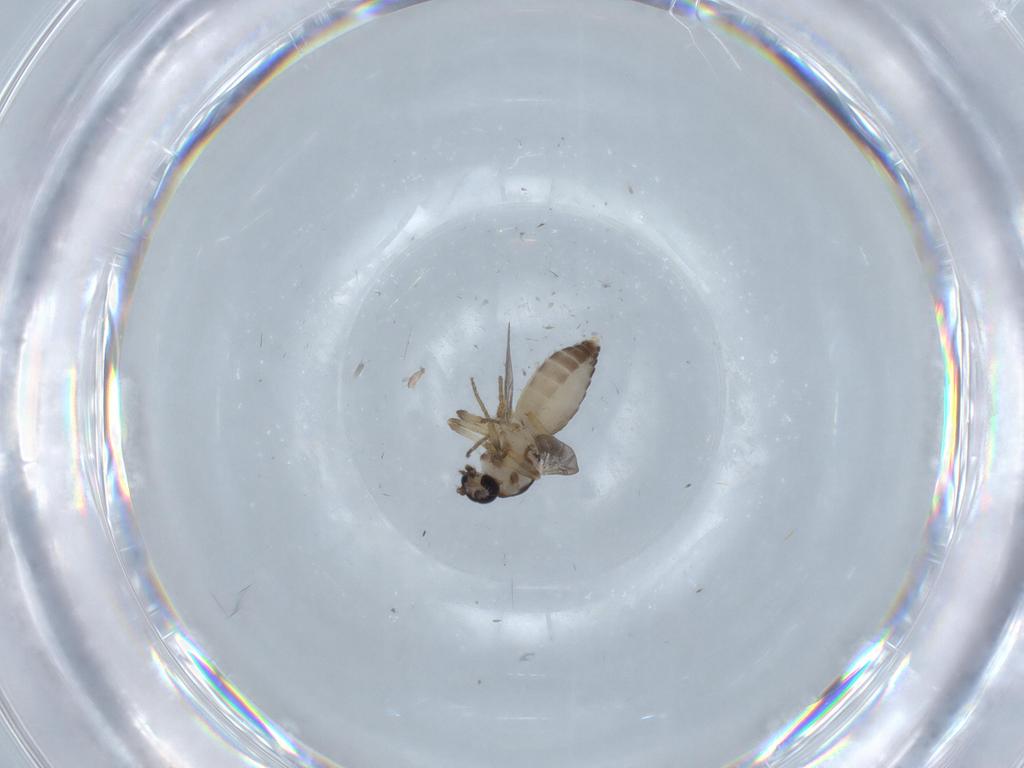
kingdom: Animalia
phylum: Arthropoda
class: Insecta
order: Diptera
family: Ceratopogonidae
